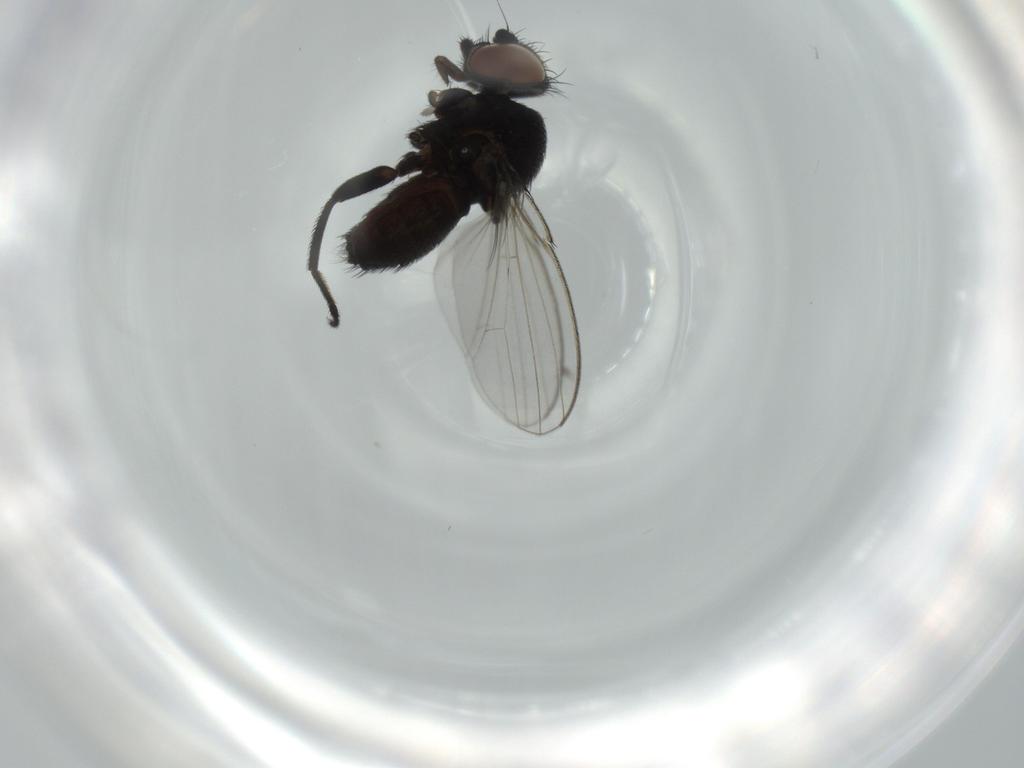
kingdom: Animalia
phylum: Arthropoda
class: Insecta
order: Diptera
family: Milichiidae
